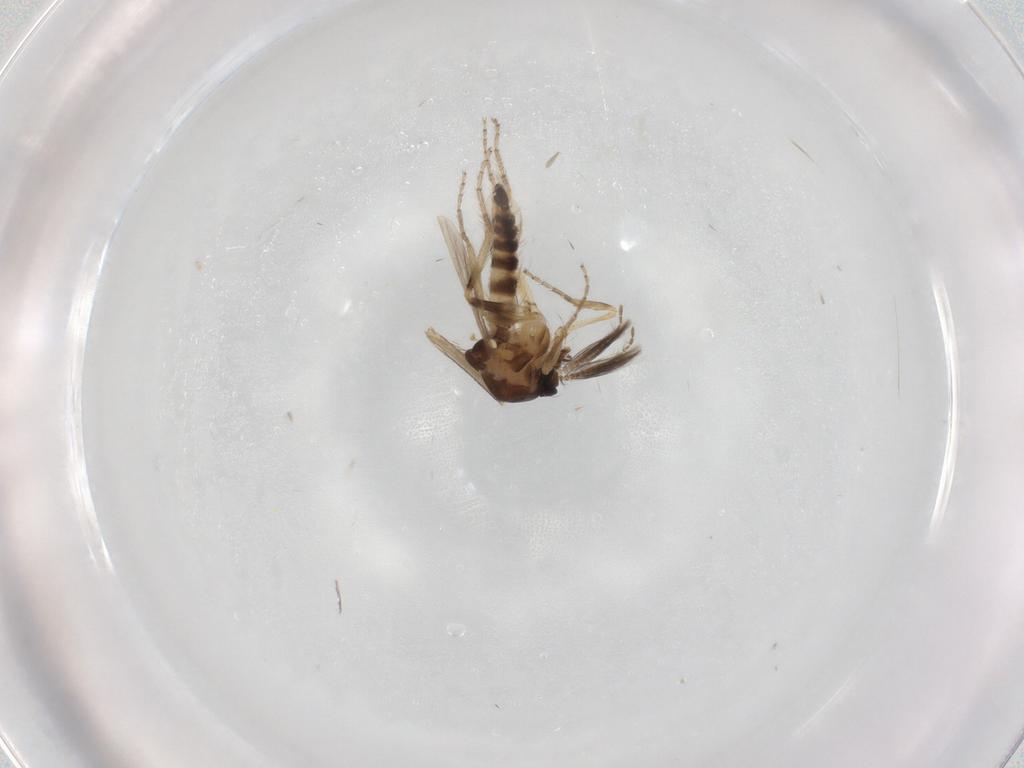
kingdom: Animalia
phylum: Arthropoda
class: Insecta
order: Diptera
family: Ceratopogonidae
